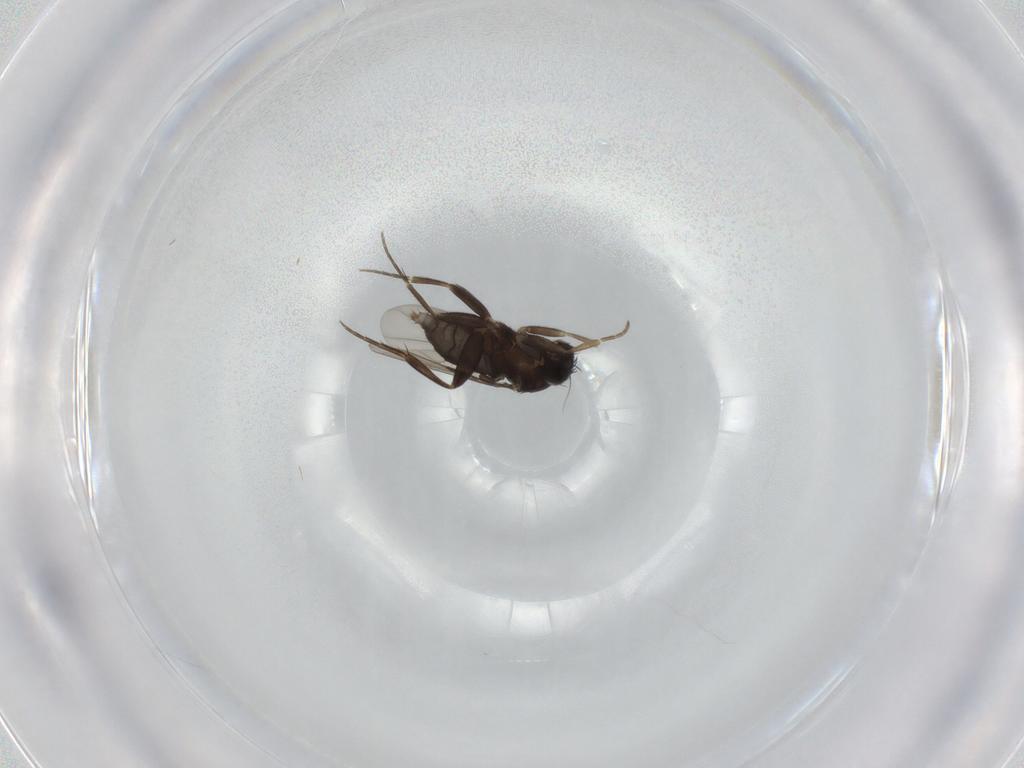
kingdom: Animalia
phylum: Arthropoda
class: Insecta
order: Diptera
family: Phoridae
